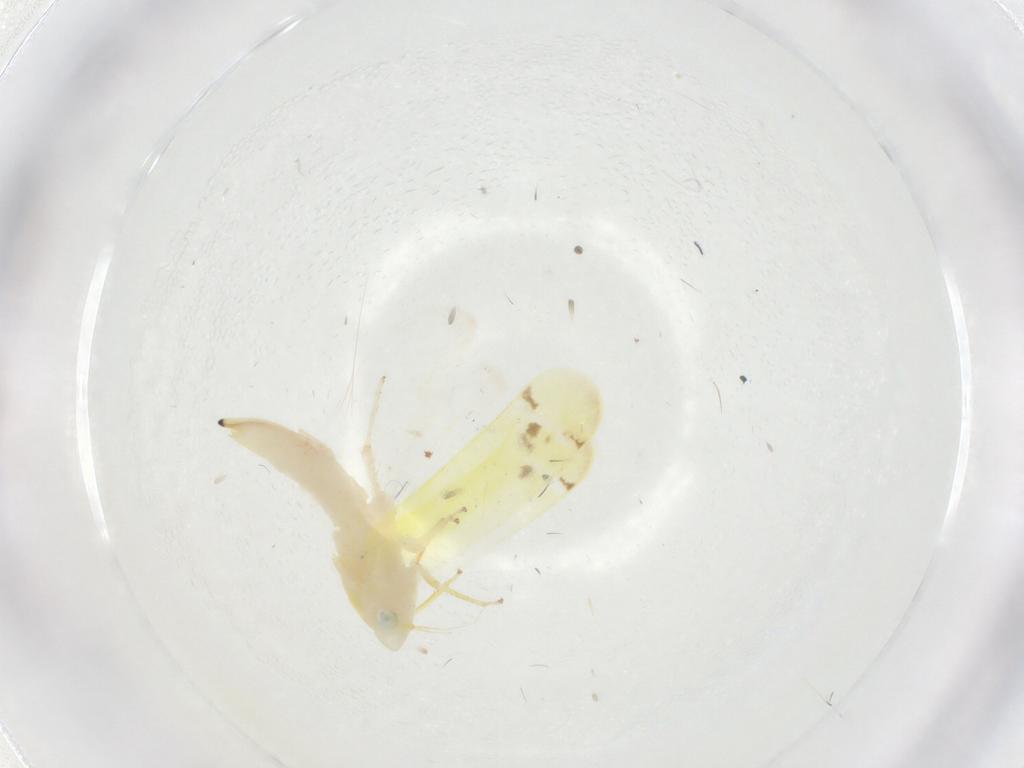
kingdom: Animalia
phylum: Arthropoda
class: Insecta
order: Hemiptera
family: Cicadellidae
